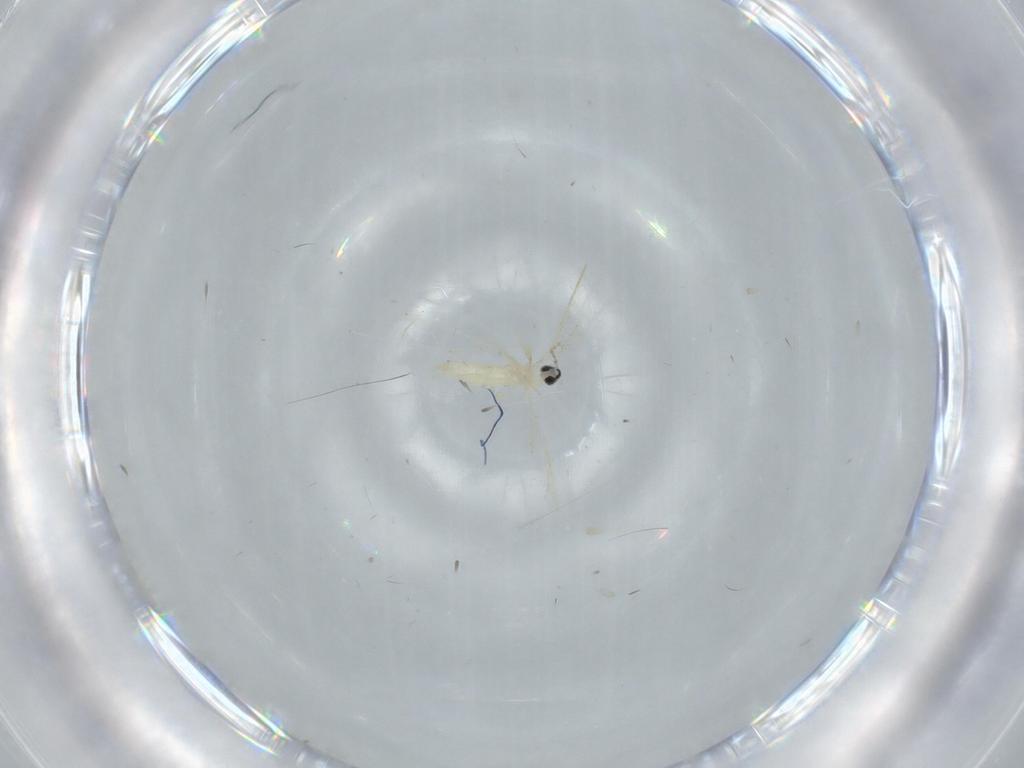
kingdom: Animalia
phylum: Arthropoda
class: Insecta
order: Diptera
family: Cecidomyiidae
